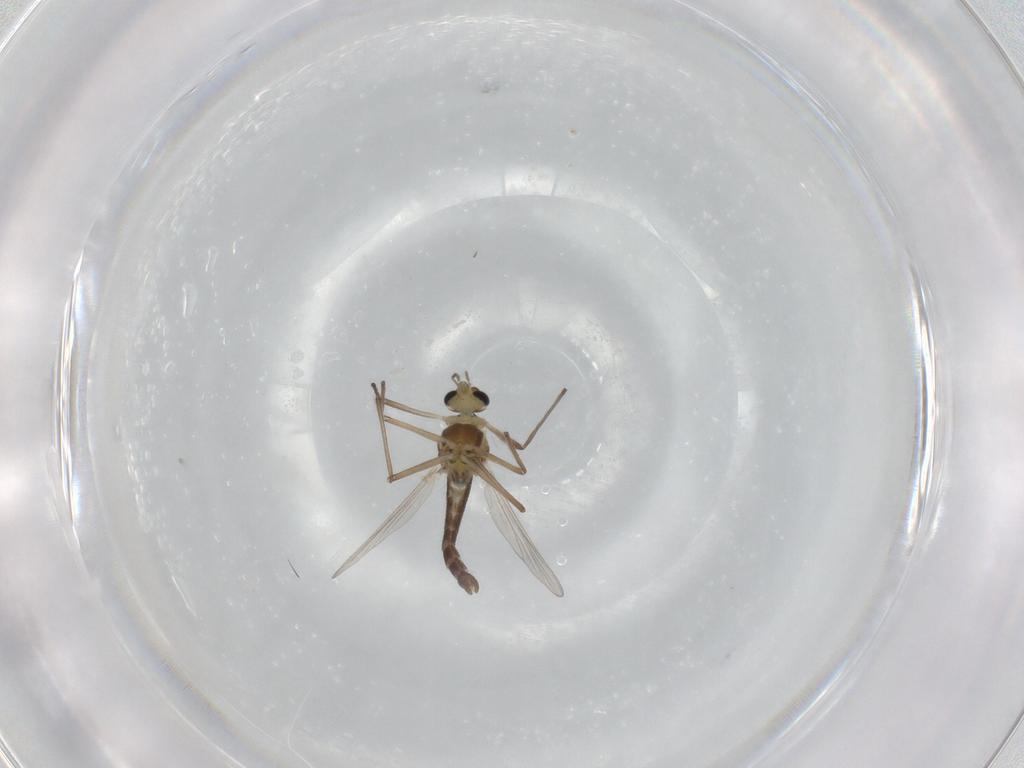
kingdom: Animalia
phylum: Arthropoda
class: Insecta
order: Diptera
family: Chironomidae
